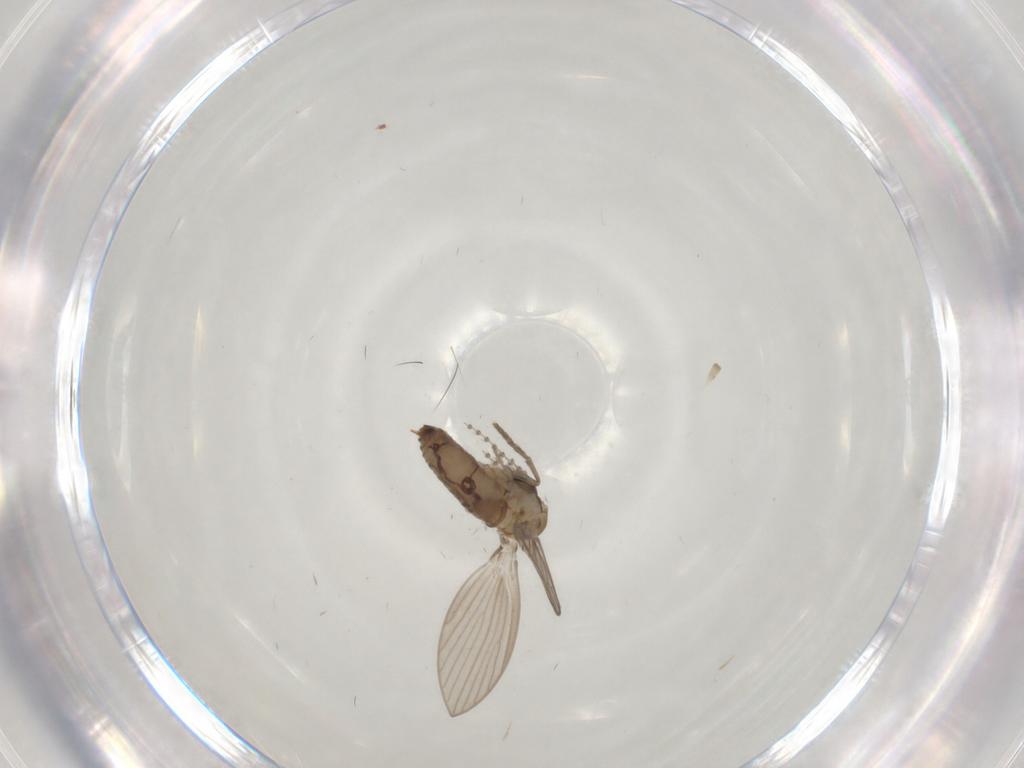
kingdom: Animalia
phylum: Arthropoda
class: Insecta
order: Diptera
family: Psychodidae
